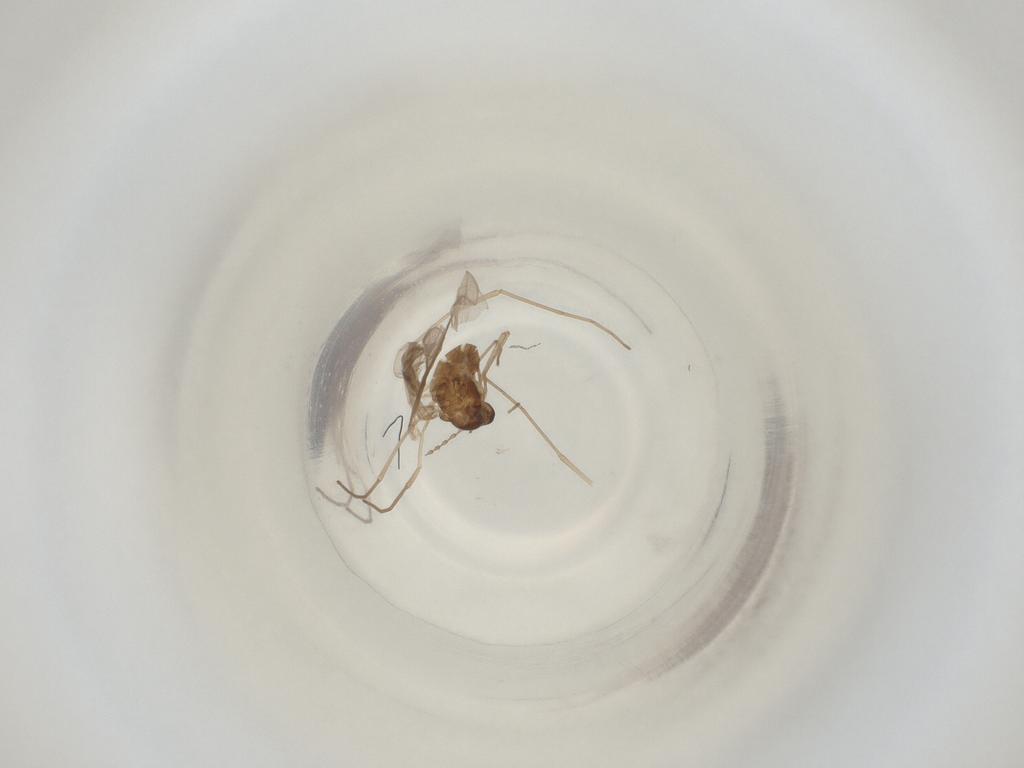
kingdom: Animalia
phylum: Arthropoda
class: Insecta
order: Diptera
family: Cecidomyiidae
